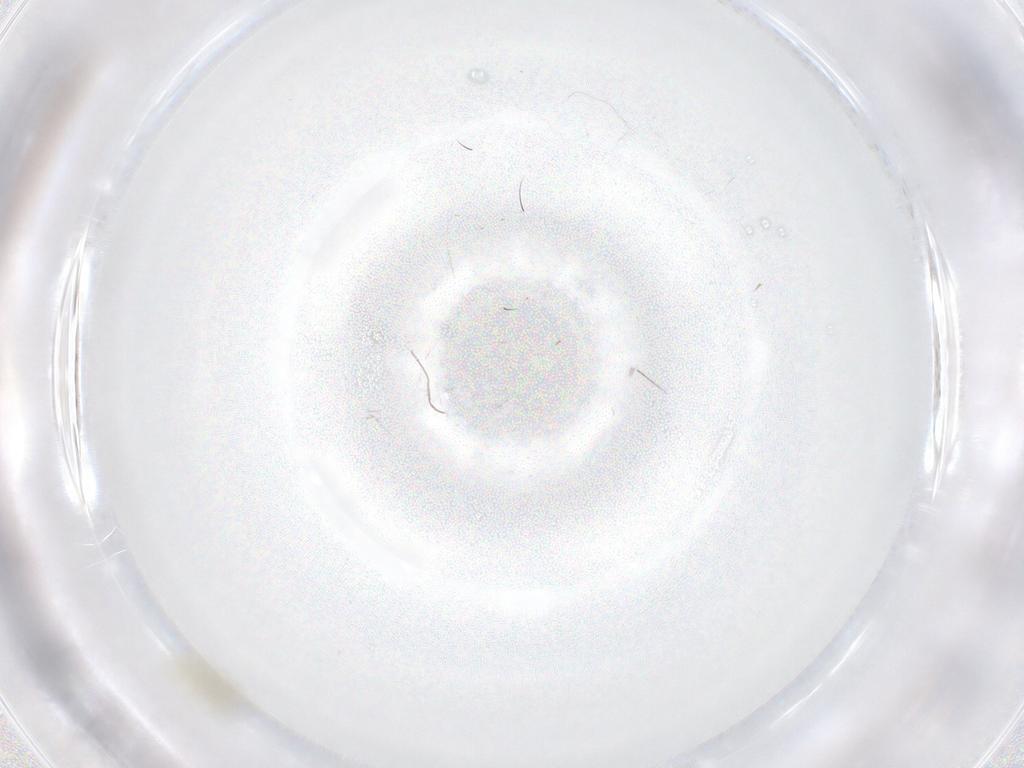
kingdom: Animalia
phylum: Arthropoda
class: Insecta
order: Diptera
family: Cecidomyiidae
